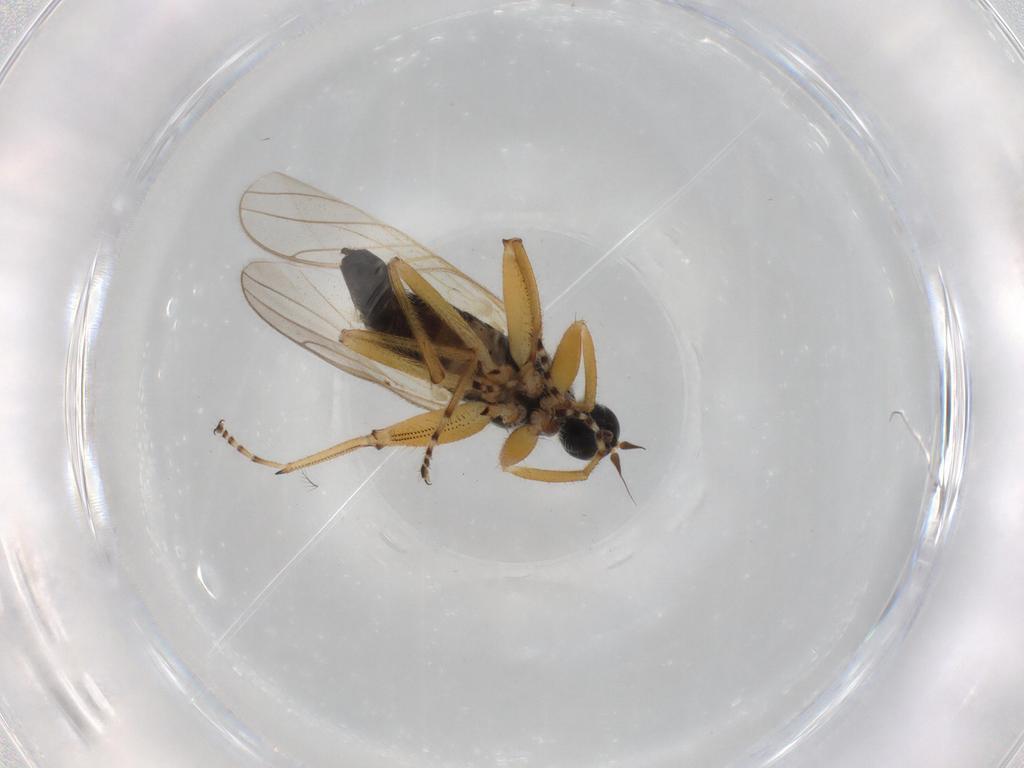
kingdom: Animalia
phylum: Arthropoda
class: Insecta
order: Diptera
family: Hybotidae
